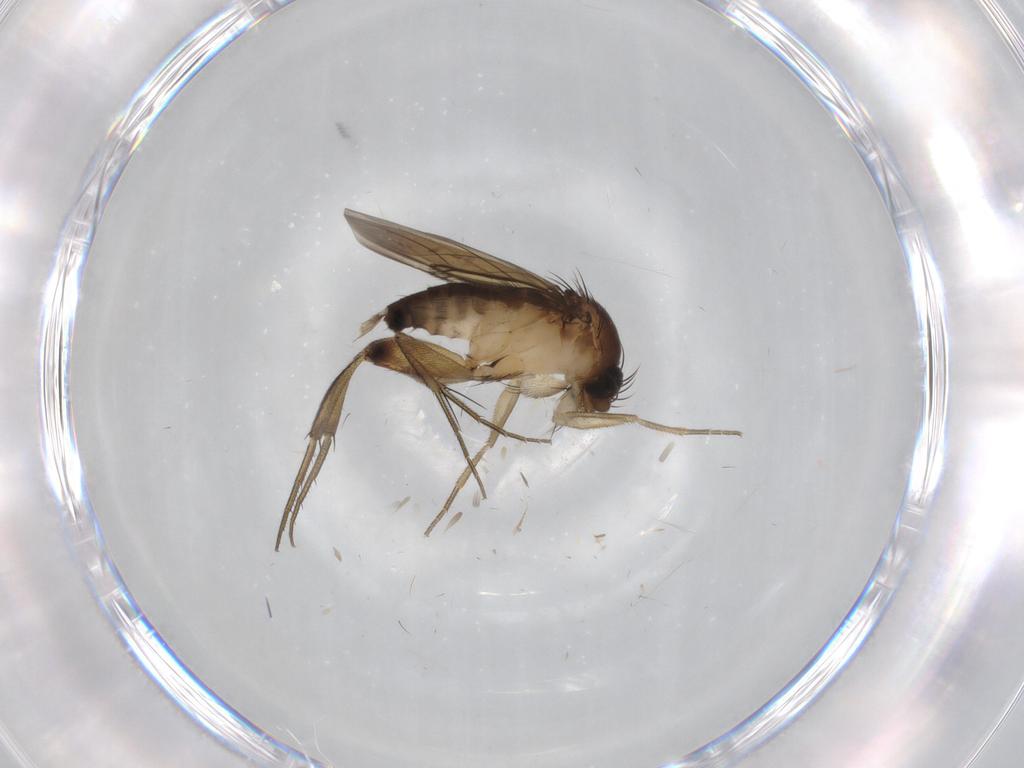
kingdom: Animalia
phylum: Arthropoda
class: Insecta
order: Diptera
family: Phoridae
